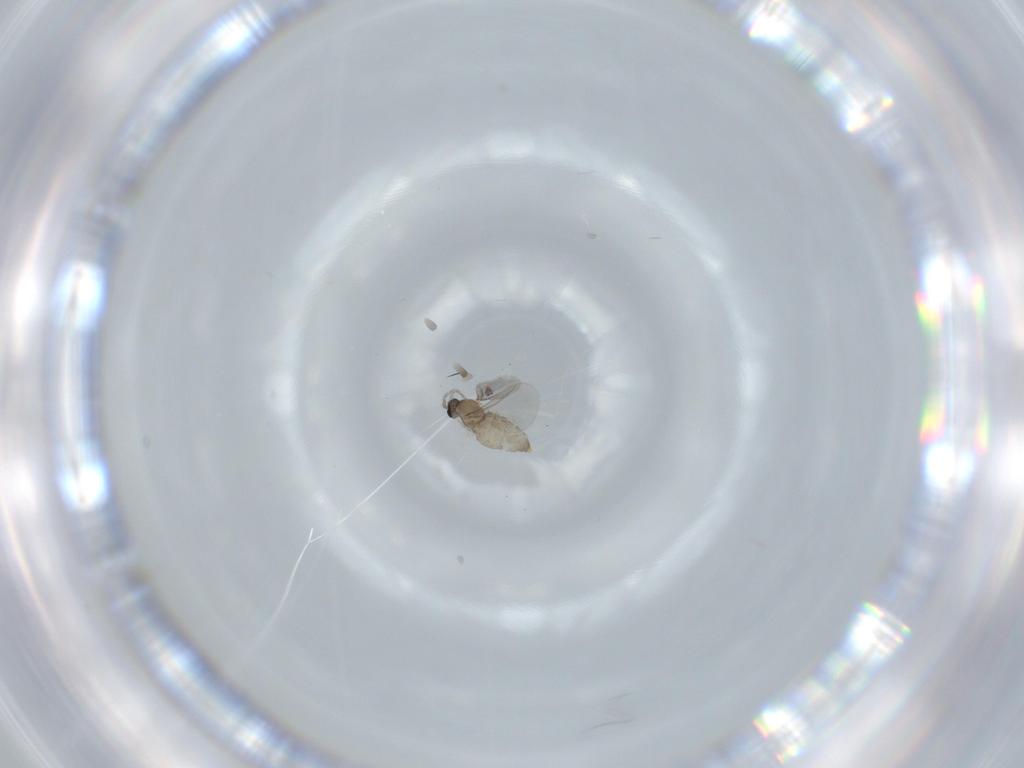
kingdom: Animalia
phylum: Arthropoda
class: Insecta
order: Diptera
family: Cecidomyiidae
